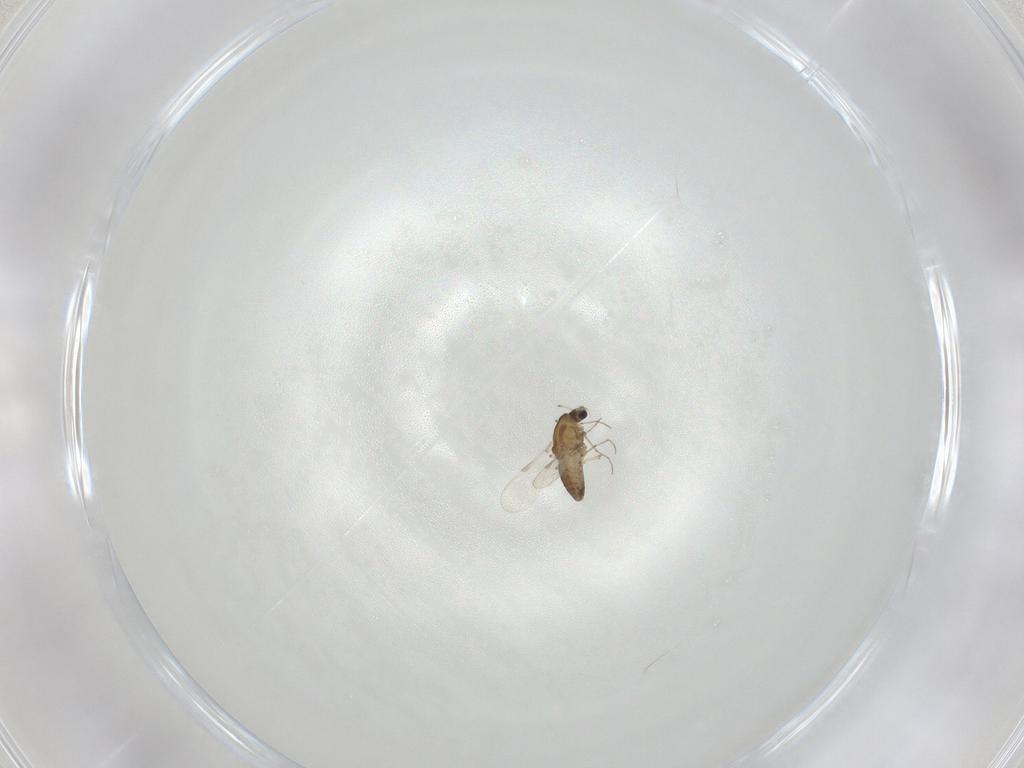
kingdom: Animalia
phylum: Arthropoda
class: Insecta
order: Diptera
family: Chironomidae
